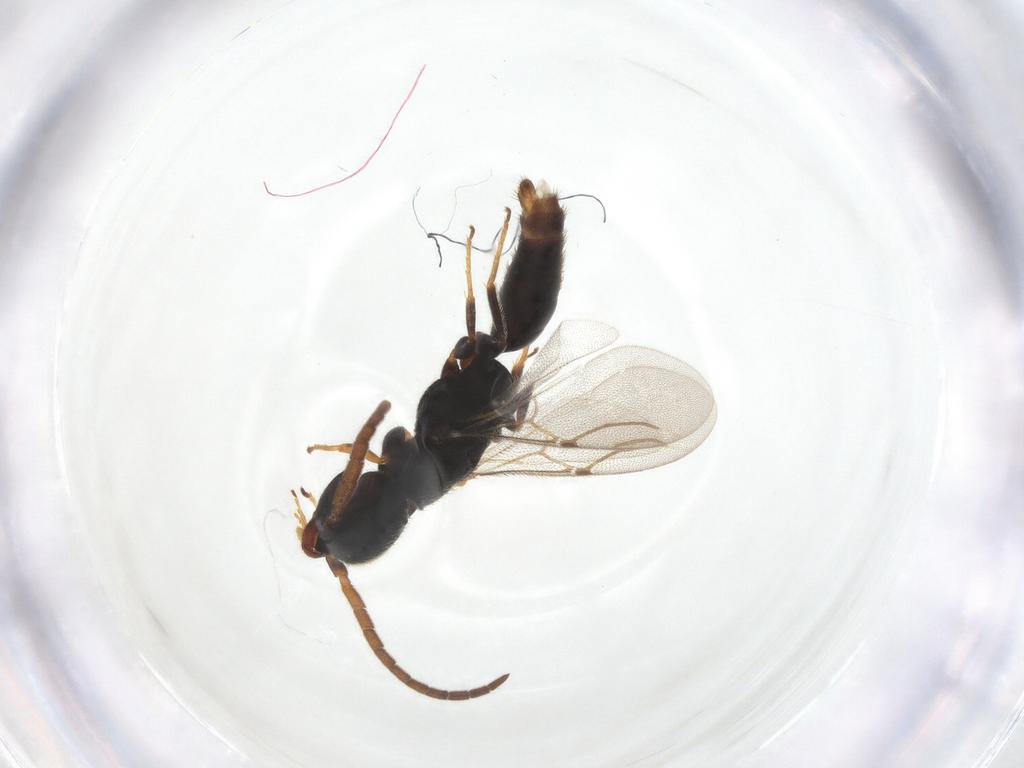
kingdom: Animalia
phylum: Arthropoda
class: Insecta
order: Hymenoptera
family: Bethylidae
